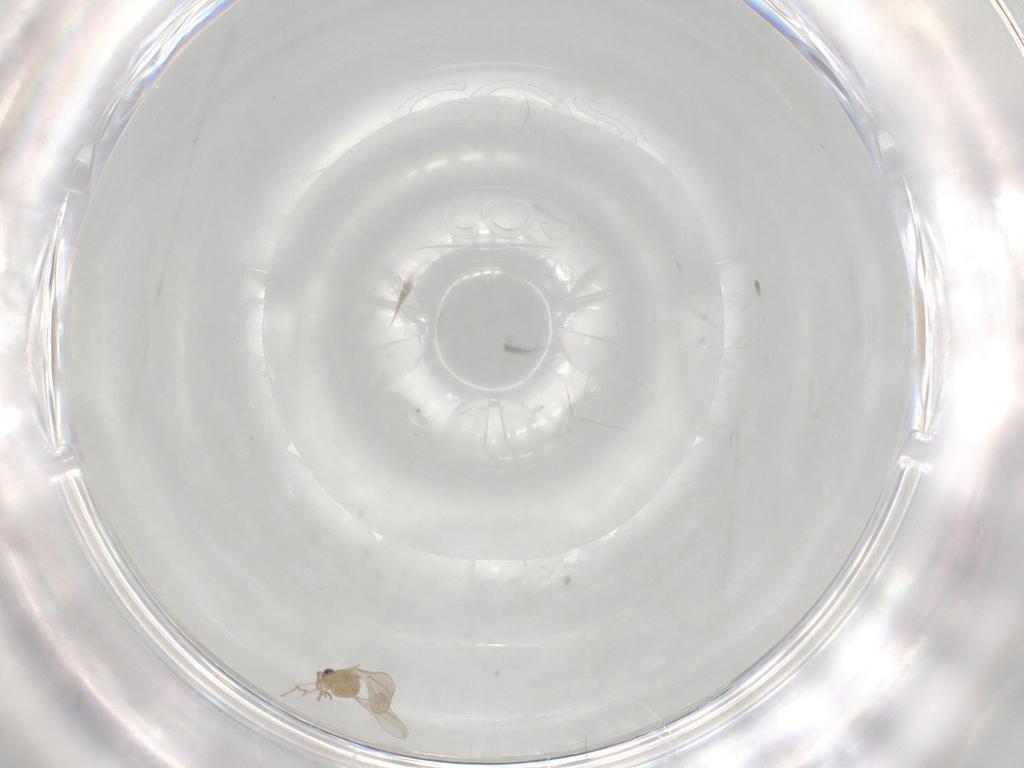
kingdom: Animalia
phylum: Arthropoda
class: Insecta
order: Diptera
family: Cecidomyiidae
